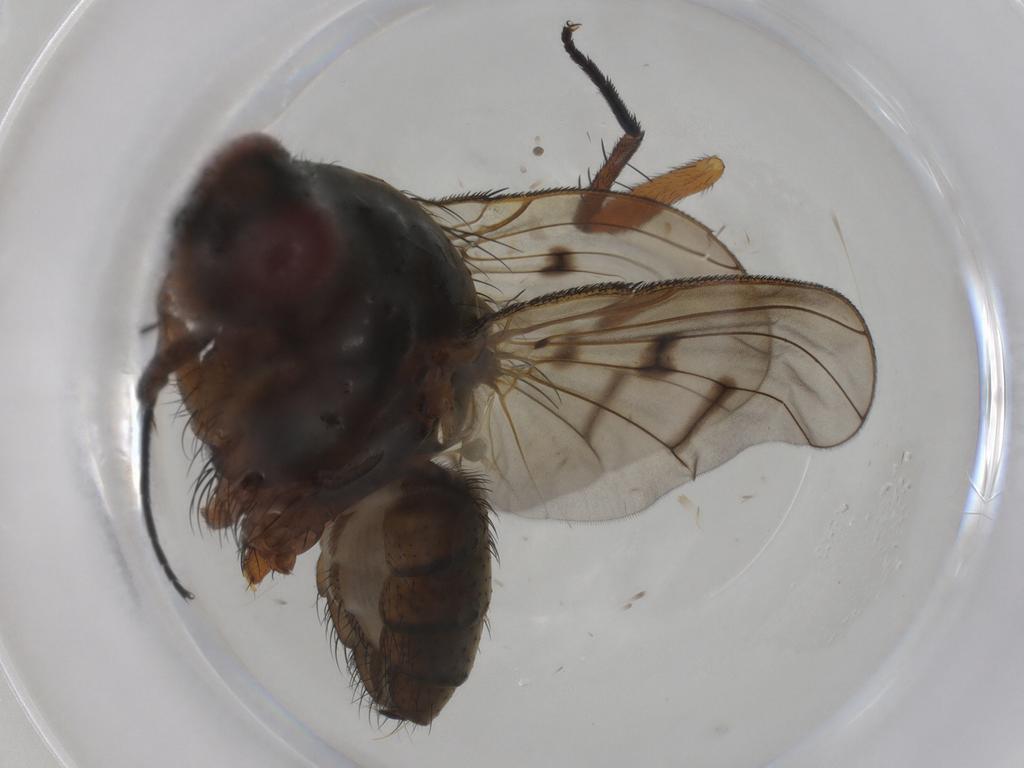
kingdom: Animalia
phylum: Arthropoda
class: Insecta
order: Diptera
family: Anthomyiidae
